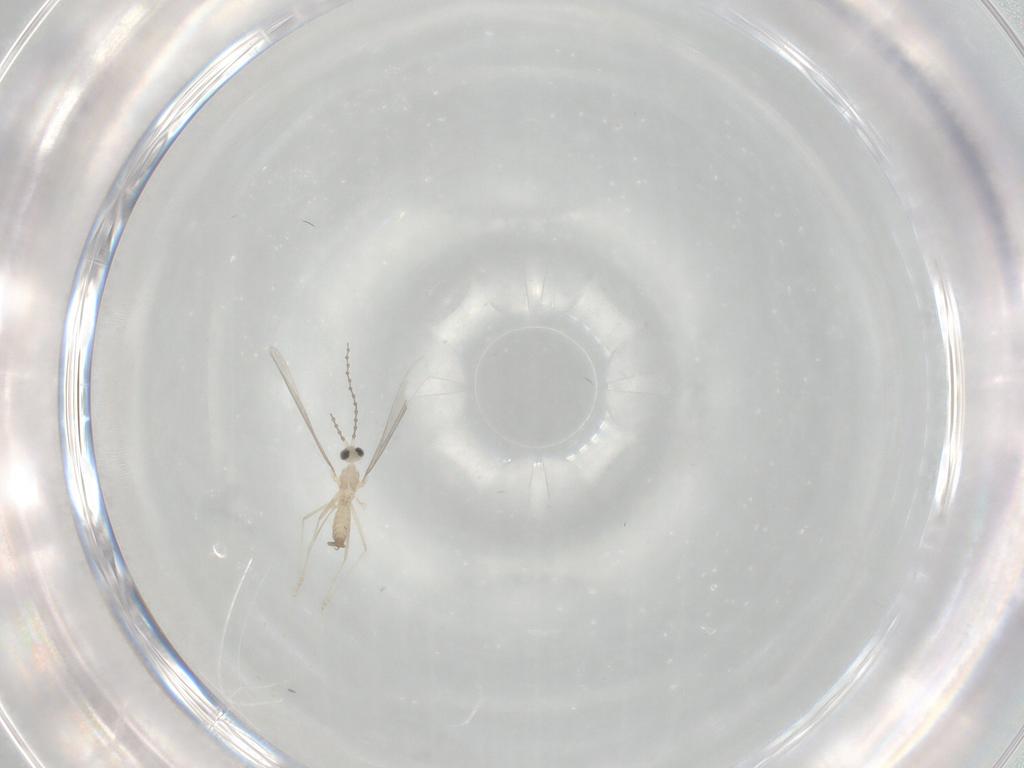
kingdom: Animalia
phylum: Arthropoda
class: Insecta
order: Diptera
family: Cecidomyiidae
